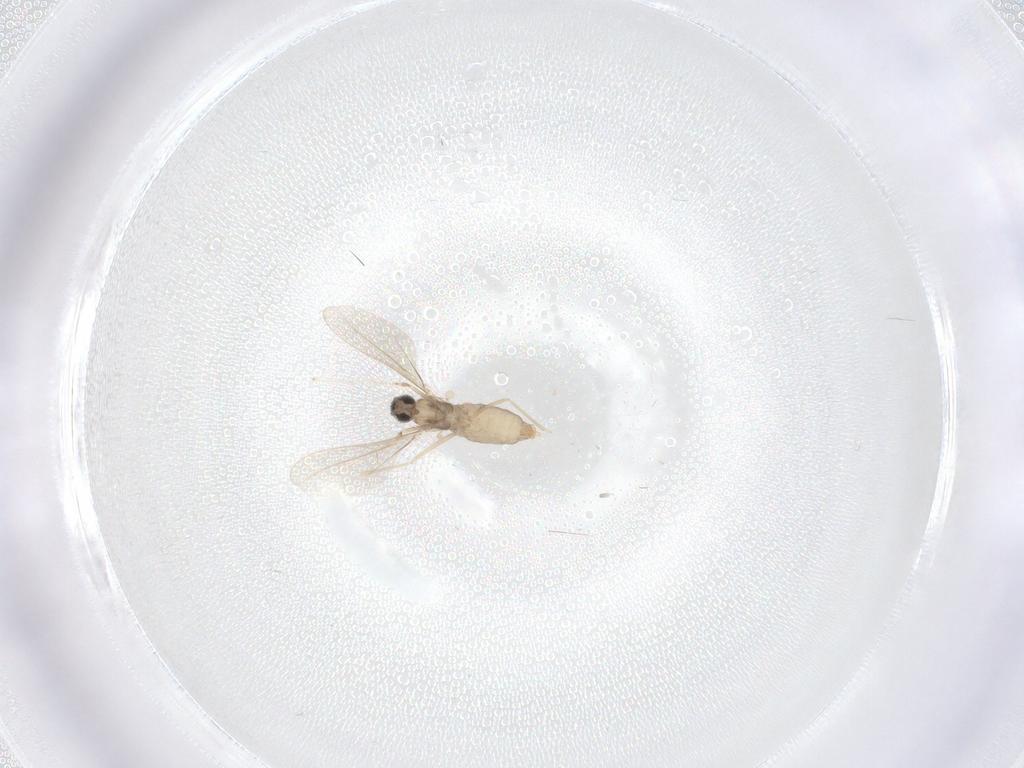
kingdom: Animalia
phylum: Arthropoda
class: Insecta
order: Diptera
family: Cecidomyiidae
